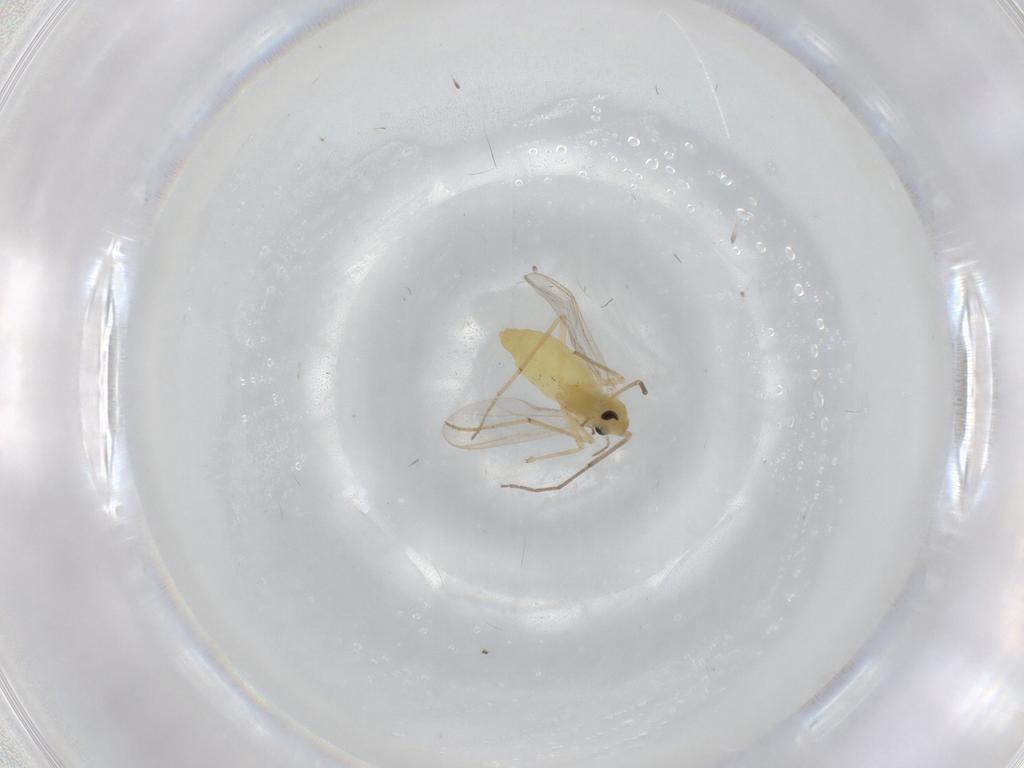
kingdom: Animalia
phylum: Arthropoda
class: Insecta
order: Diptera
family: Chironomidae
